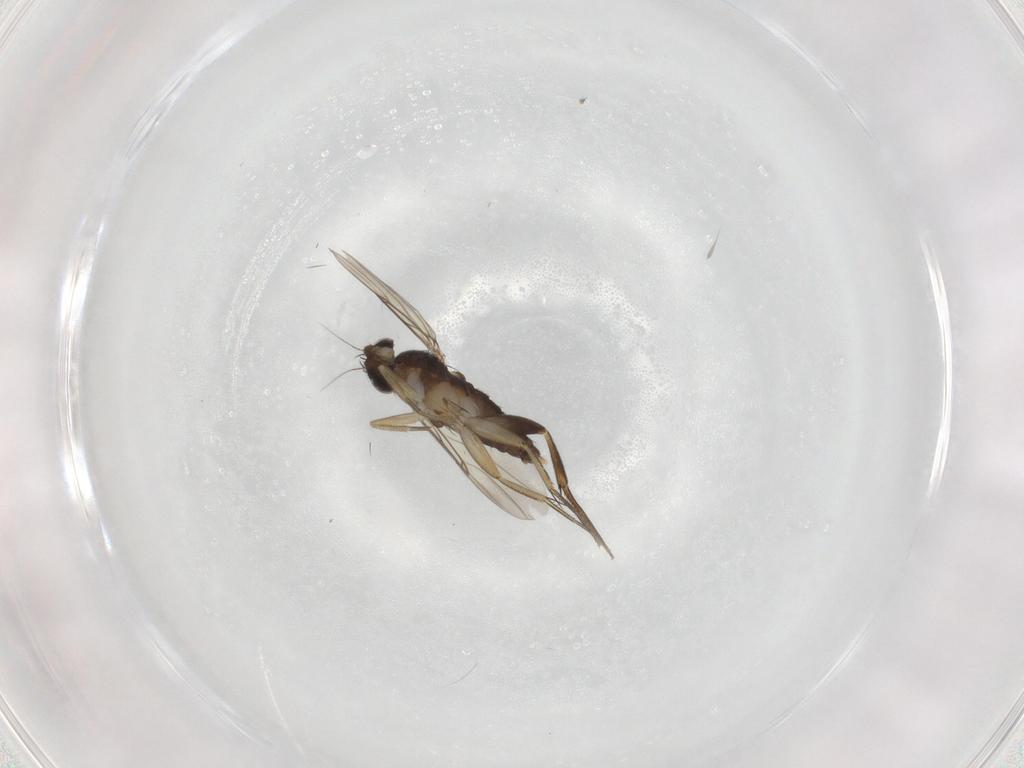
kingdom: Animalia
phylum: Arthropoda
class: Insecta
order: Diptera
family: Phoridae
